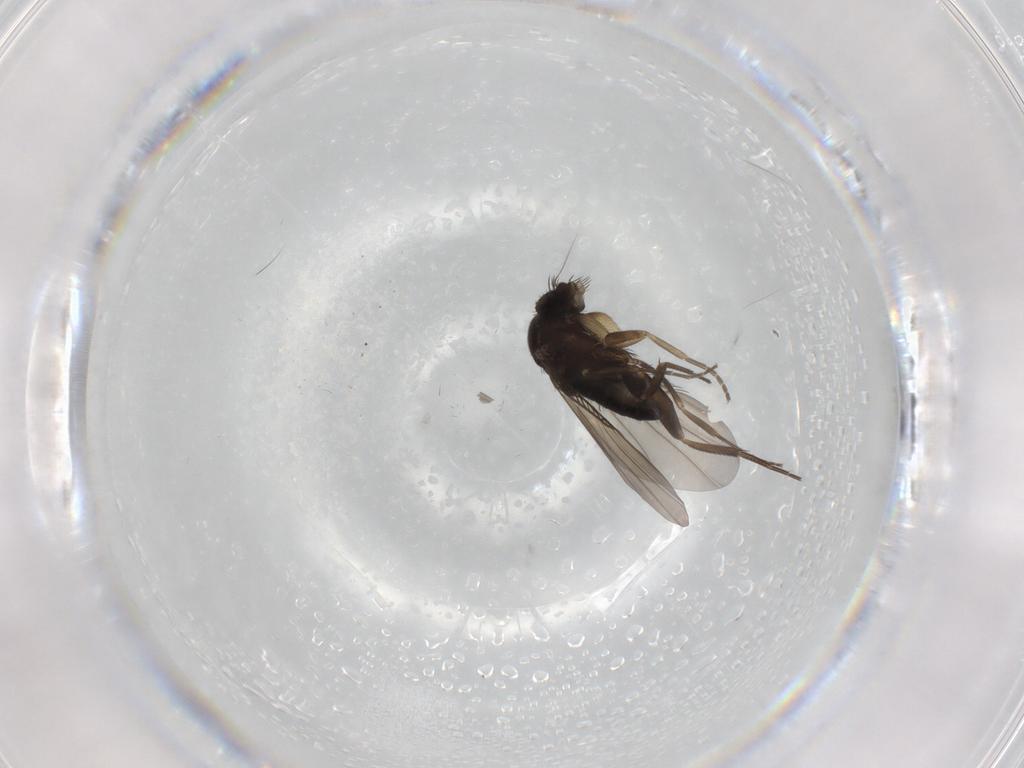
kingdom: Animalia
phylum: Arthropoda
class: Insecta
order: Diptera
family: Phoridae
